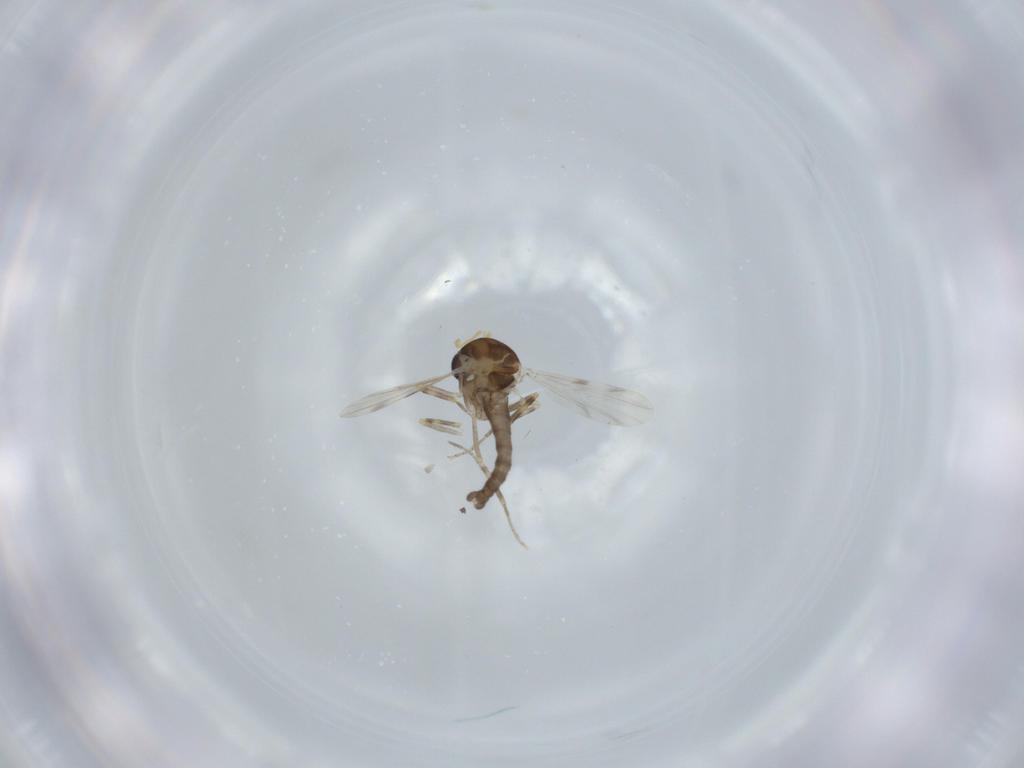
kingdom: Animalia
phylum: Arthropoda
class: Insecta
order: Diptera
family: Ceratopogonidae
